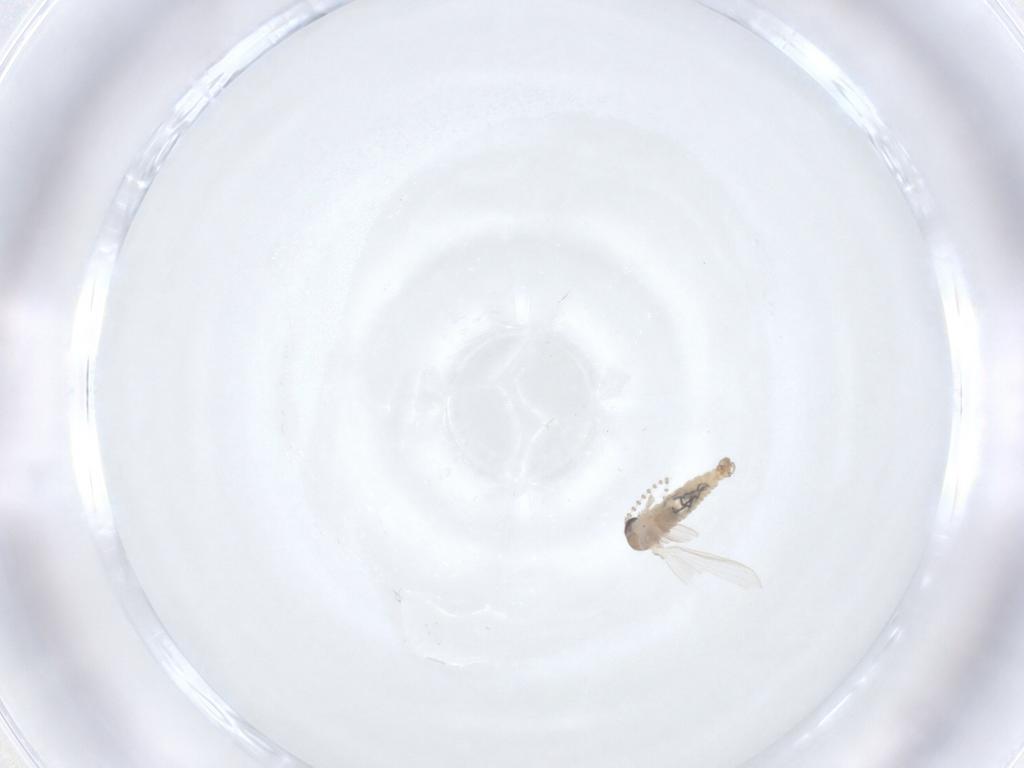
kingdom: Animalia
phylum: Arthropoda
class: Insecta
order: Diptera
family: Psychodidae
